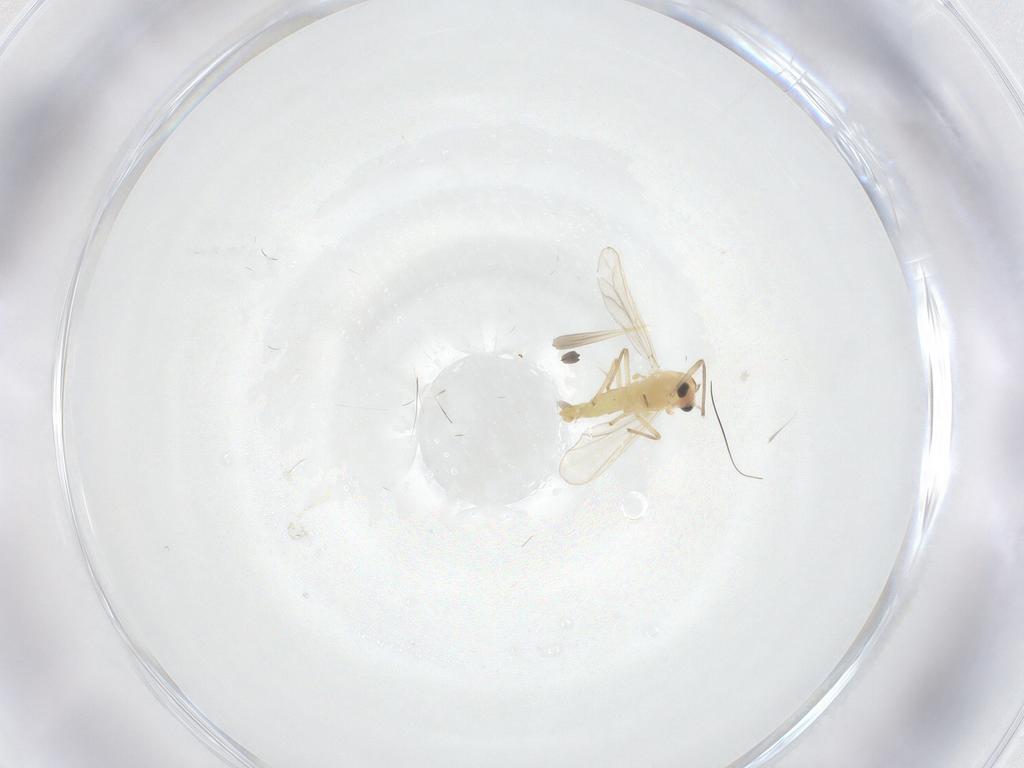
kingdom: Animalia
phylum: Arthropoda
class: Insecta
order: Diptera
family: Chironomidae
